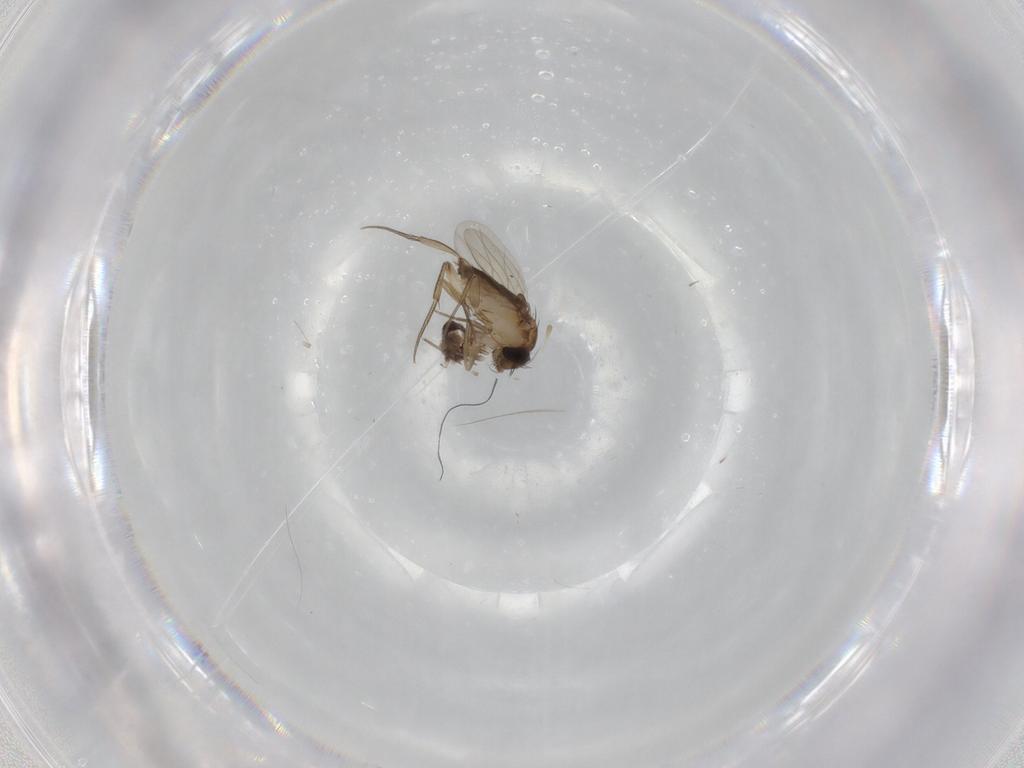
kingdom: Animalia
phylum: Arthropoda
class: Insecta
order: Diptera
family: Phoridae
